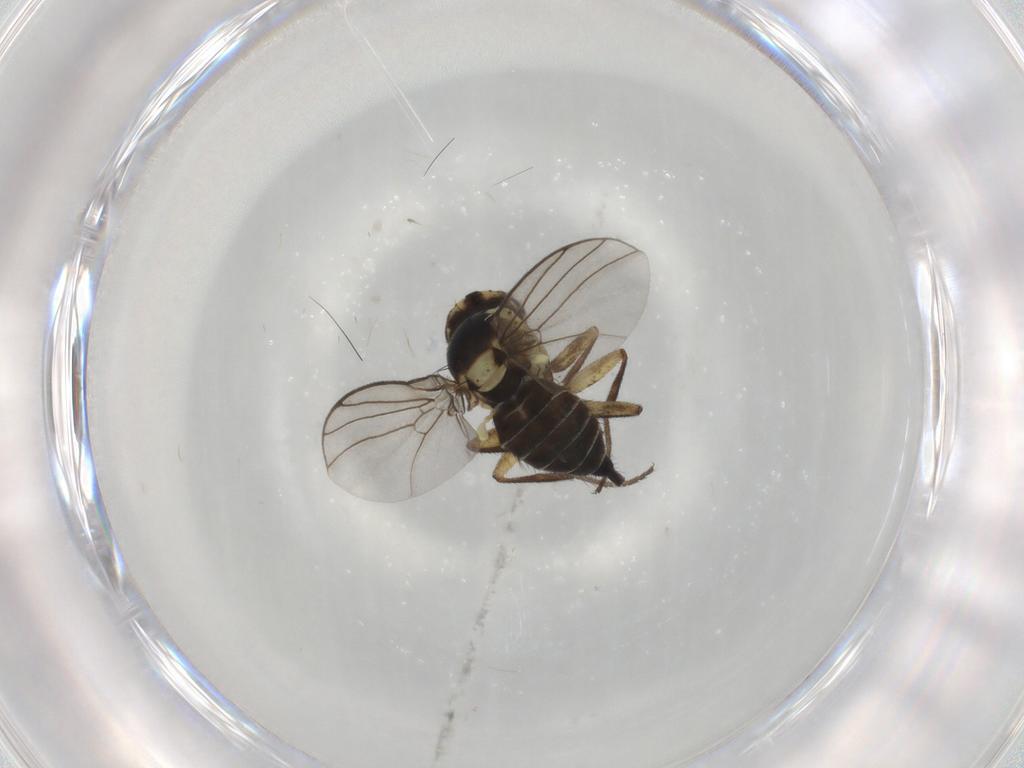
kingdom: Animalia
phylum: Arthropoda
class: Insecta
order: Diptera
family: Agromyzidae
